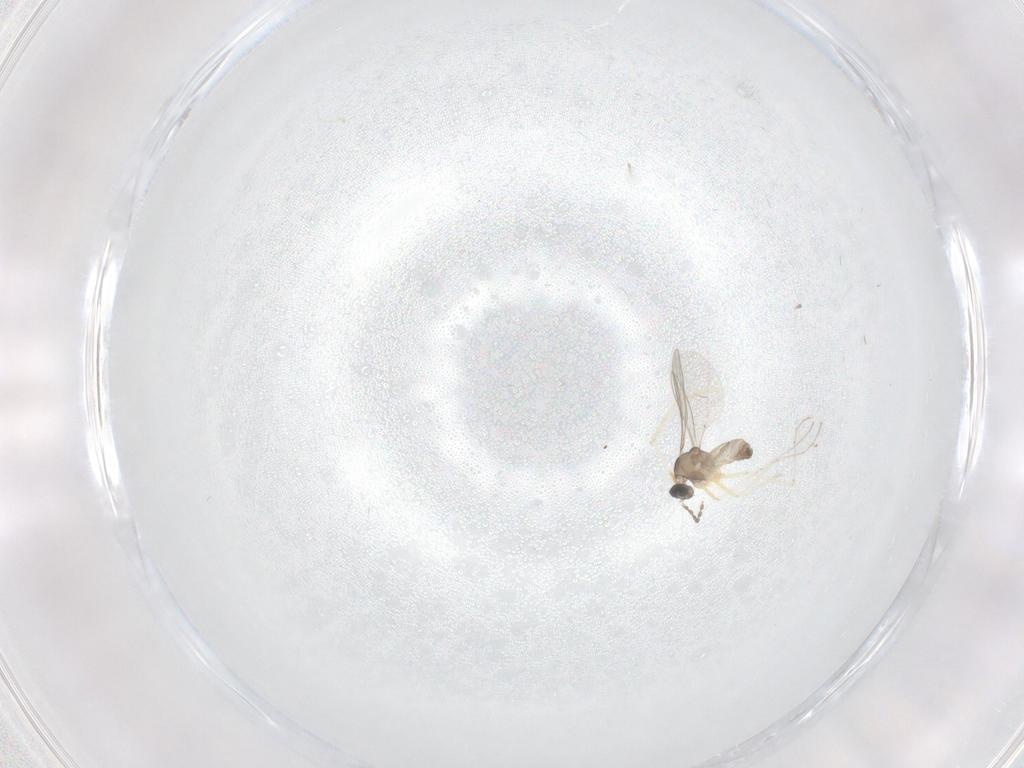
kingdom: Animalia
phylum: Arthropoda
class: Insecta
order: Diptera
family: Cecidomyiidae
